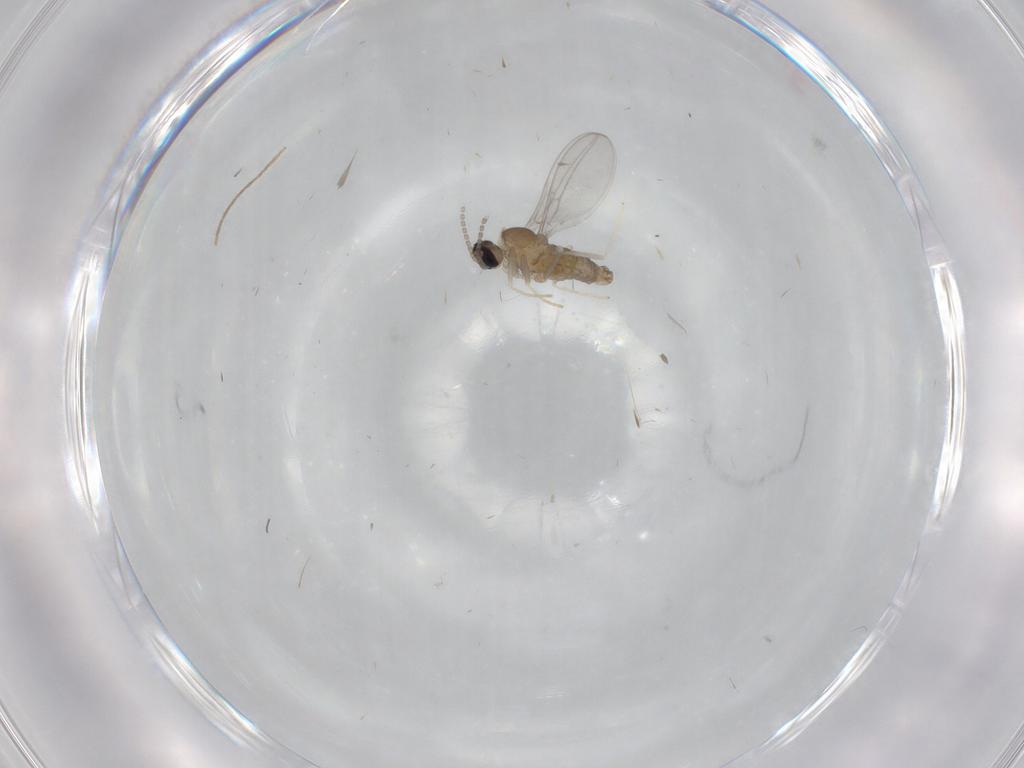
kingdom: Animalia
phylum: Arthropoda
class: Insecta
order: Diptera
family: Cecidomyiidae
